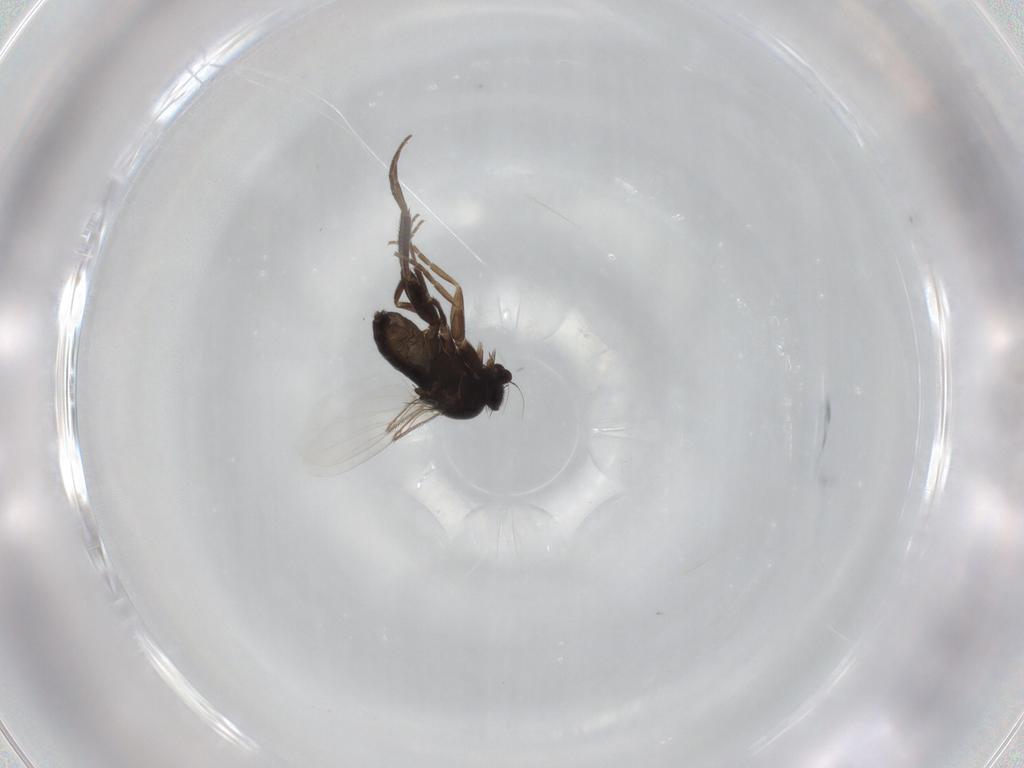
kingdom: Animalia
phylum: Arthropoda
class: Insecta
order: Diptera
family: Phoridae
